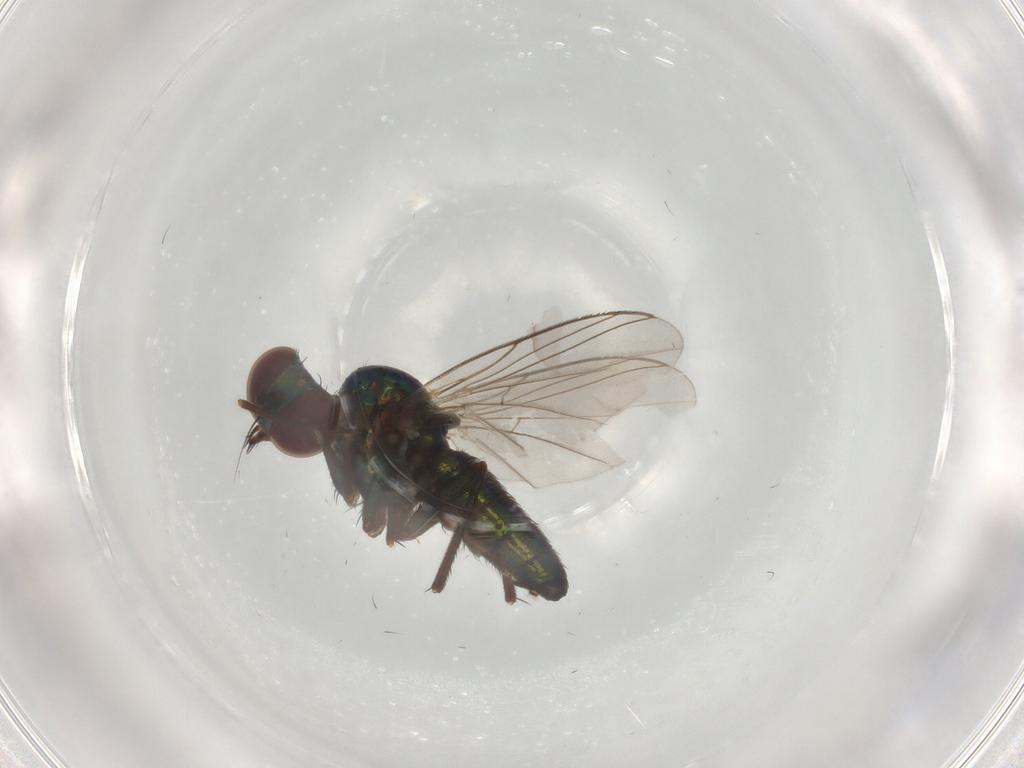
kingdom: Animalia
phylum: Arthropoda
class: Insecta
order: Diptera
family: Dolichopodidae
